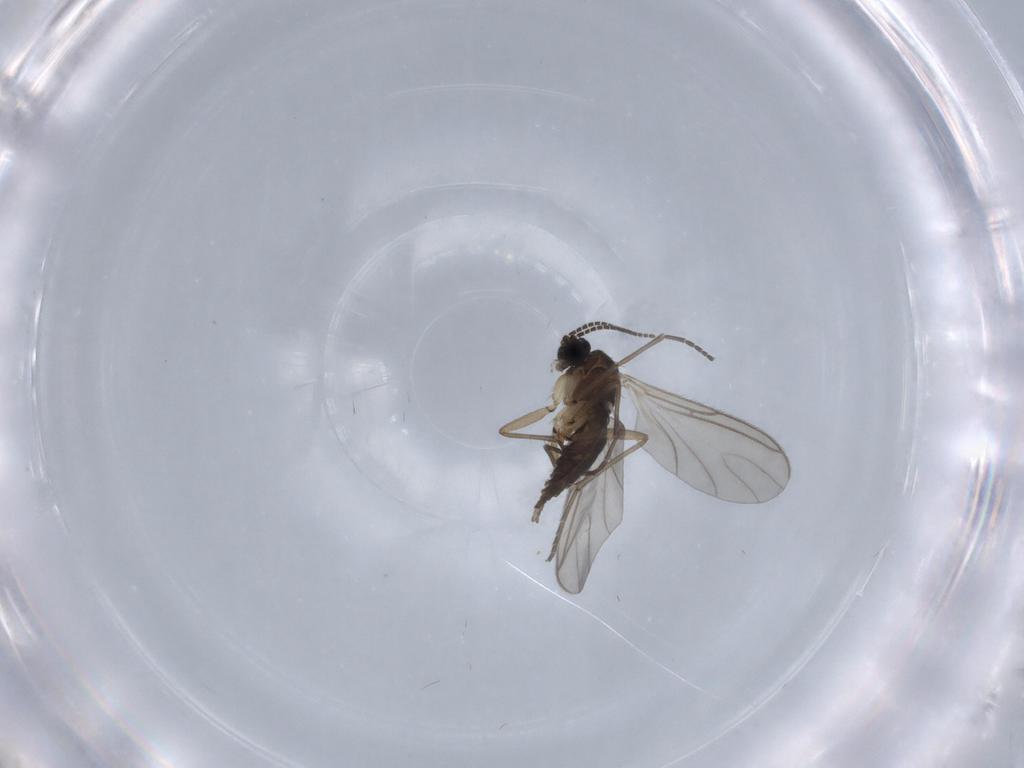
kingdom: Animalia
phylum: Arthropoda
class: Insecta
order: Diptera
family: Sciaridae
